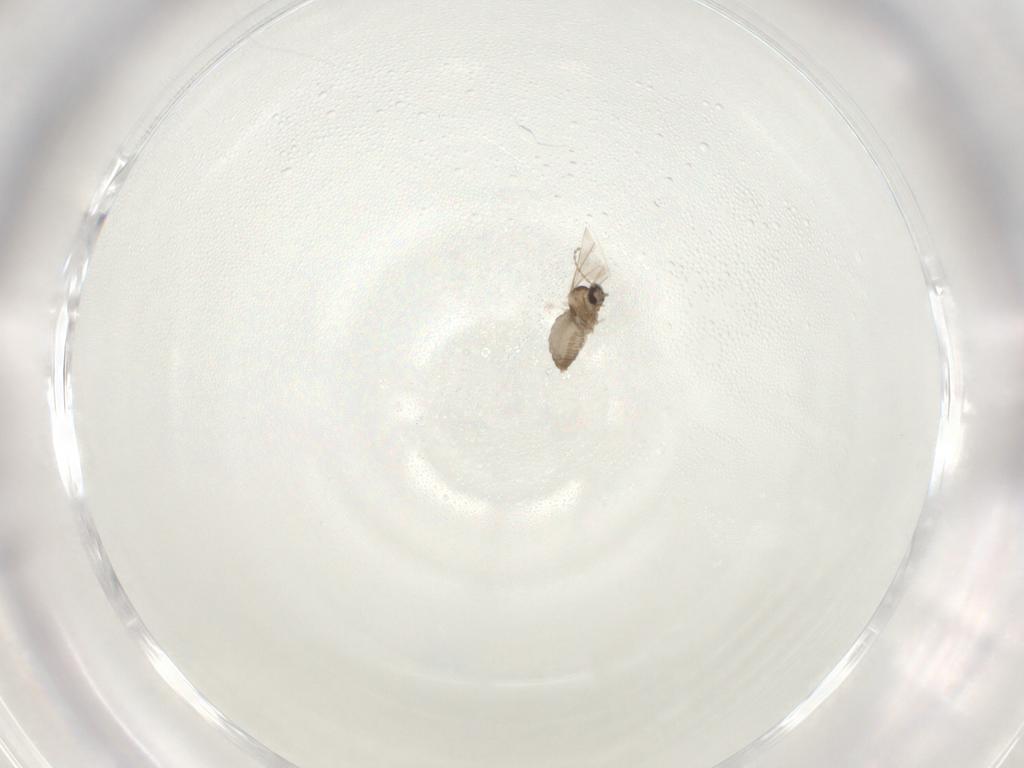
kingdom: Animalia
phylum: Arthropoda
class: Insecta
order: Diptera
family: Cecidomyiidae
